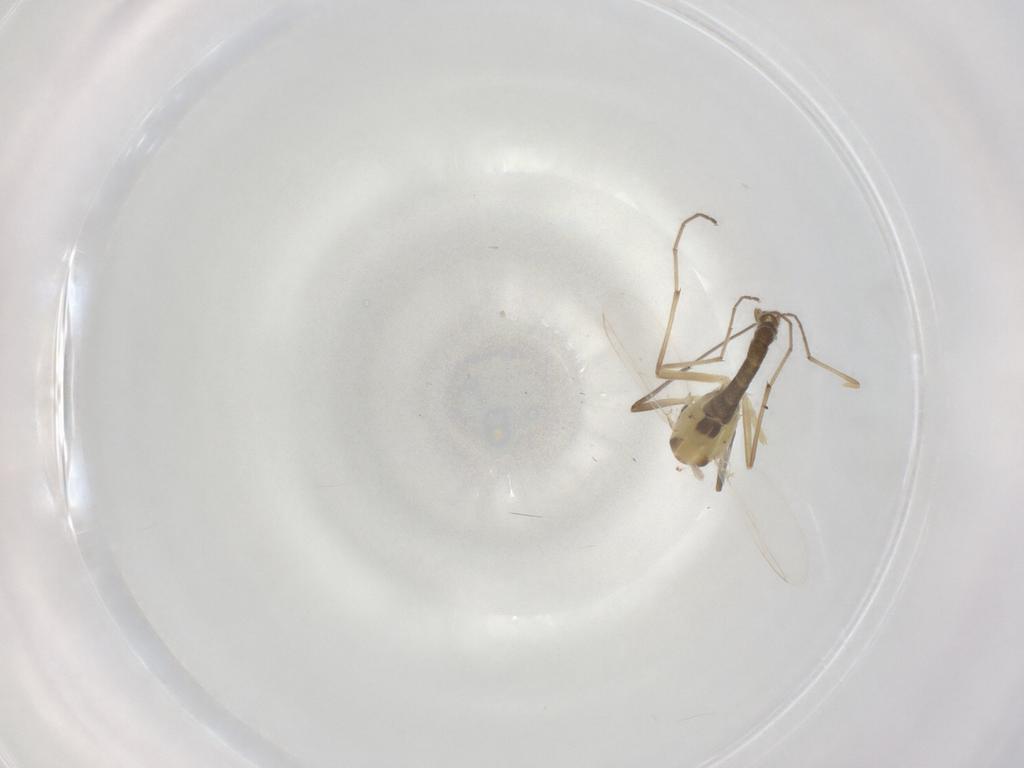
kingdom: Animalia
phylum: Arthropoda
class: Insecta
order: Diptera
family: Chironomidae
